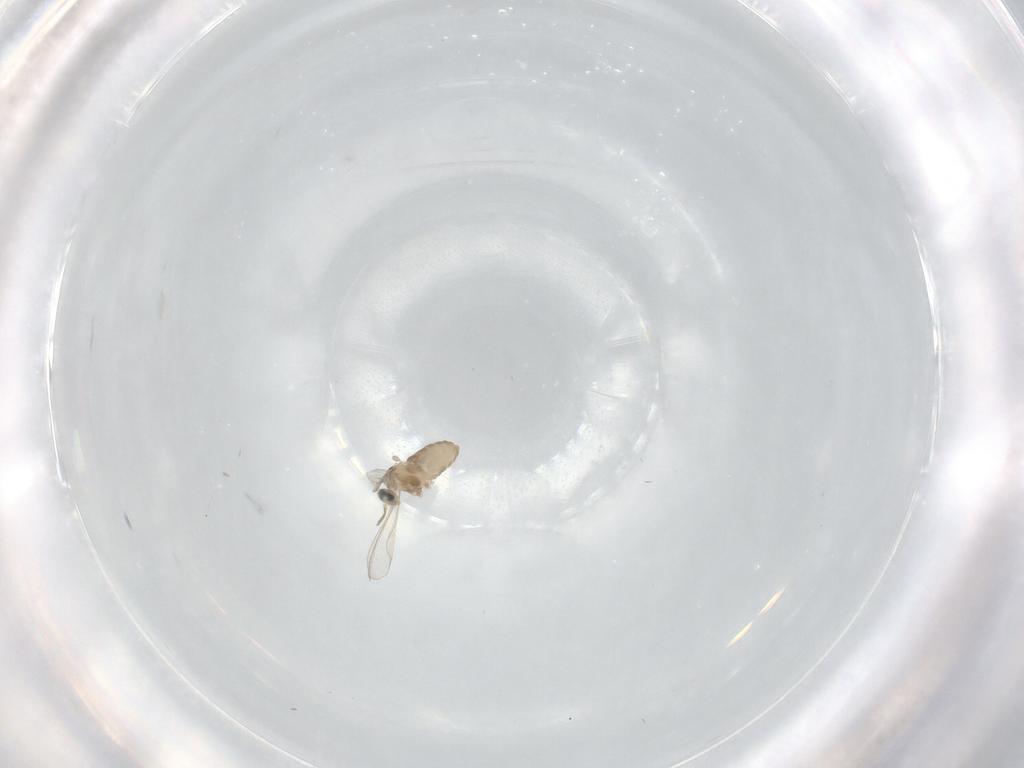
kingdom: Animalia
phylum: Arthropoda
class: Insecta
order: Diptera
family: Cecidomyiidae
